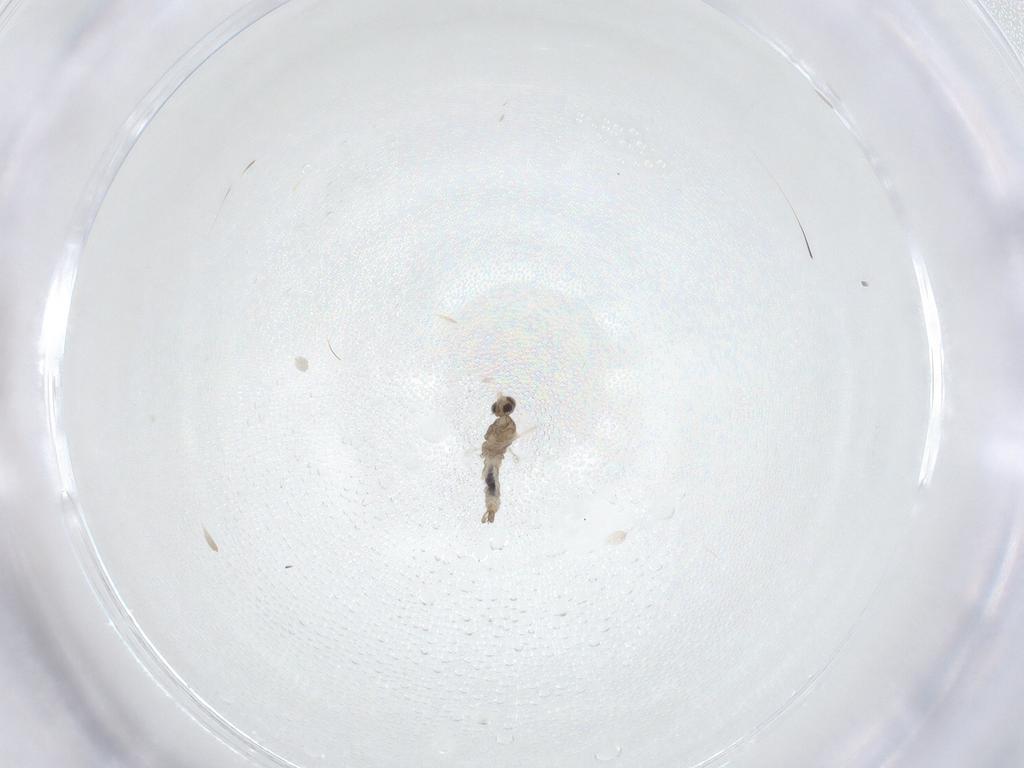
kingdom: Animalia
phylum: Arthropoda
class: Insecta
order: Diptera
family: Cecidomyiidae
